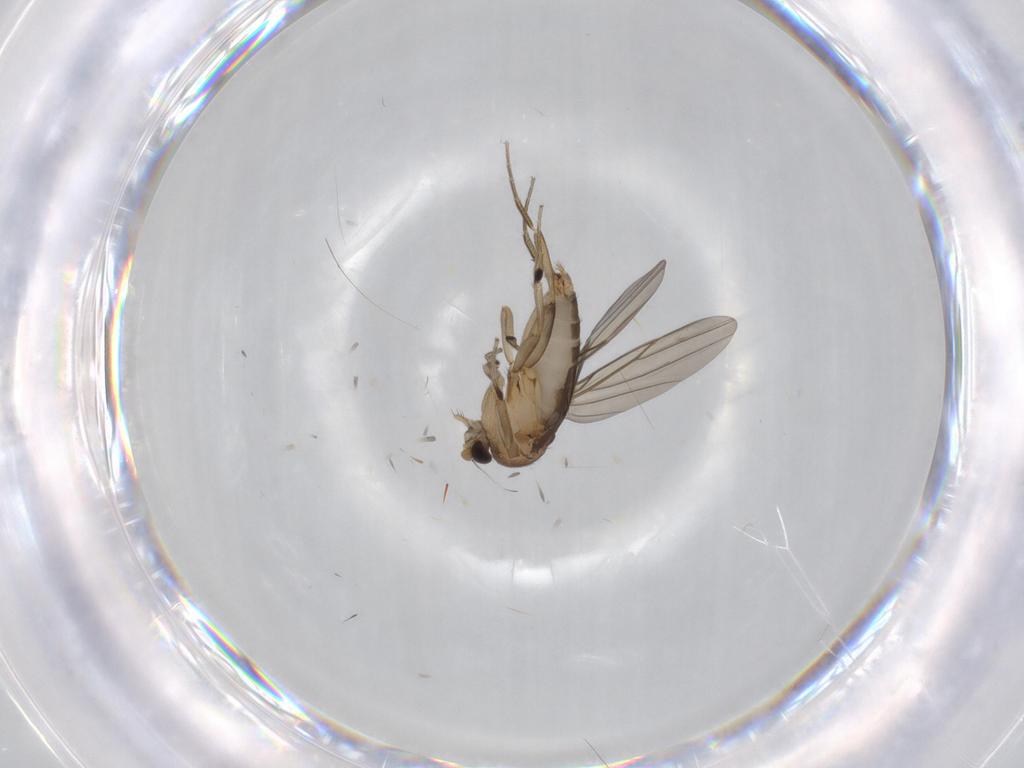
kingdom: Animalia
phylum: Arthropoda
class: Insecta
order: Diptera
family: Phoridae
